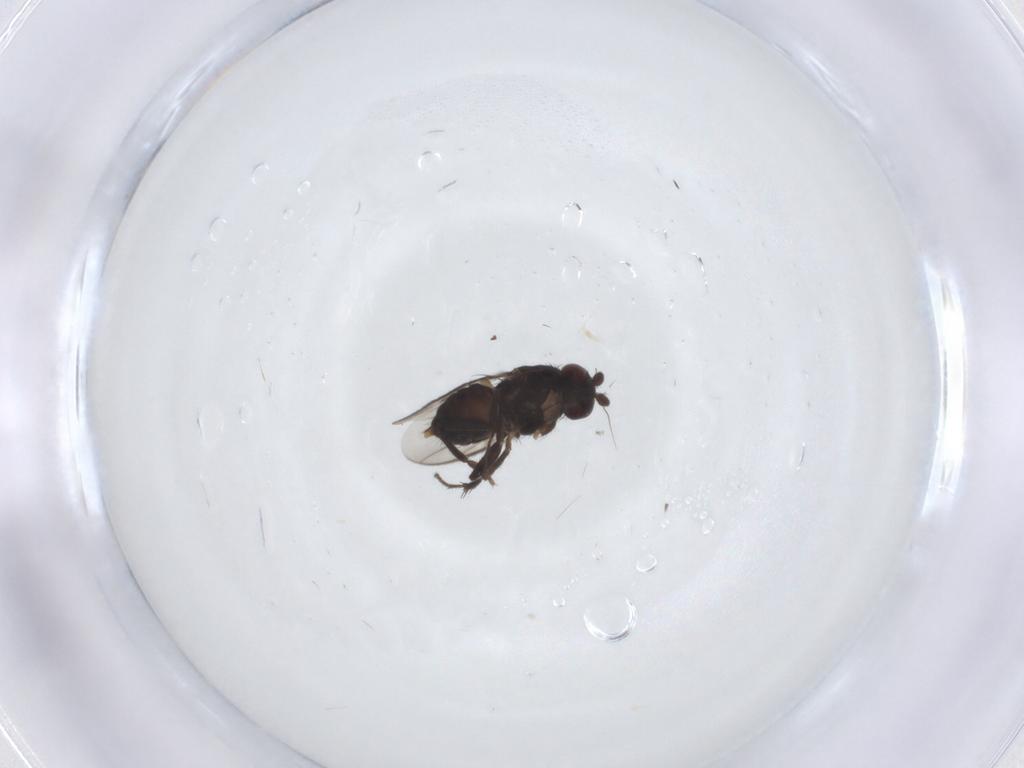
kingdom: Animalia
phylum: Arthropoda
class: Insecta
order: Diptera
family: Sphaeroceridae
